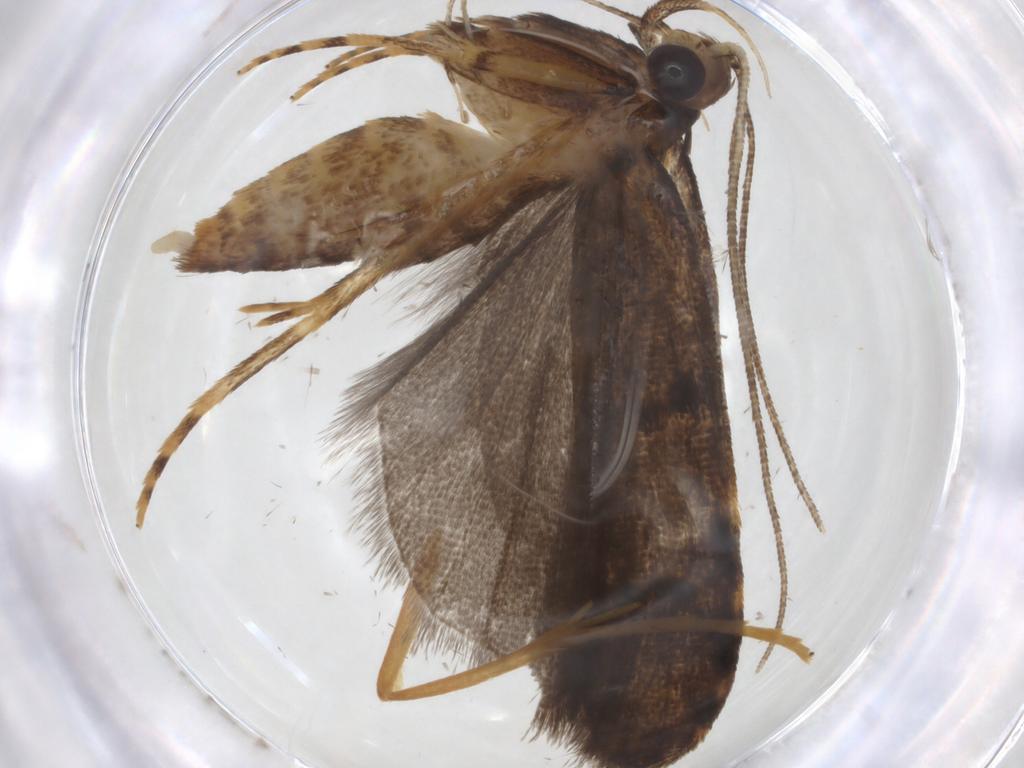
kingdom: Animalia
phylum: Arthropoda
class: Insecta
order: Lepidoptera
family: Autostichidae
